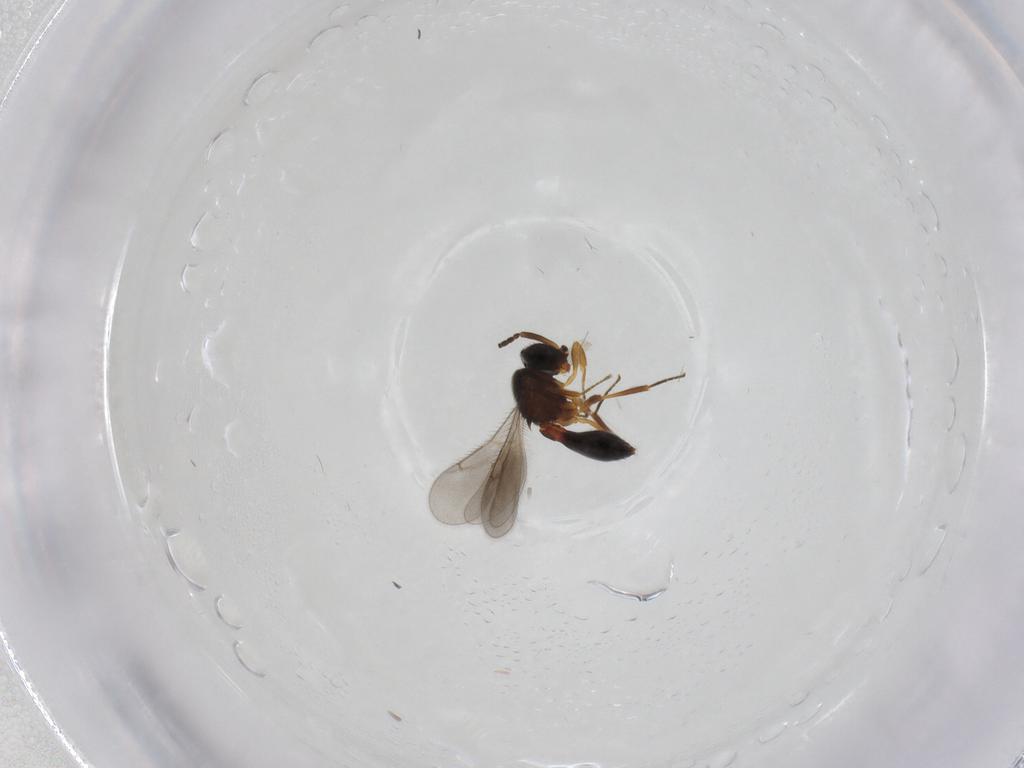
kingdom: Animalia
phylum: Arthropoda
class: Insecta
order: Hymenoptera
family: Scelionidae
